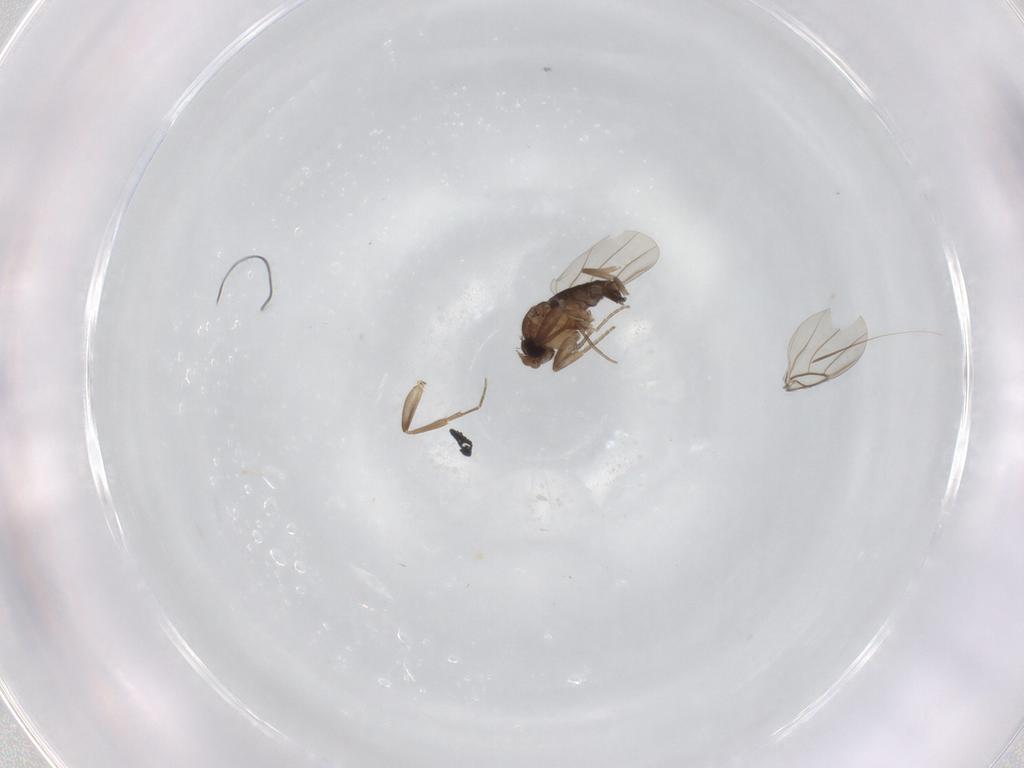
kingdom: Animalia
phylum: Arthropoda
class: Insecta
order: Diptera
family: Phoridae
